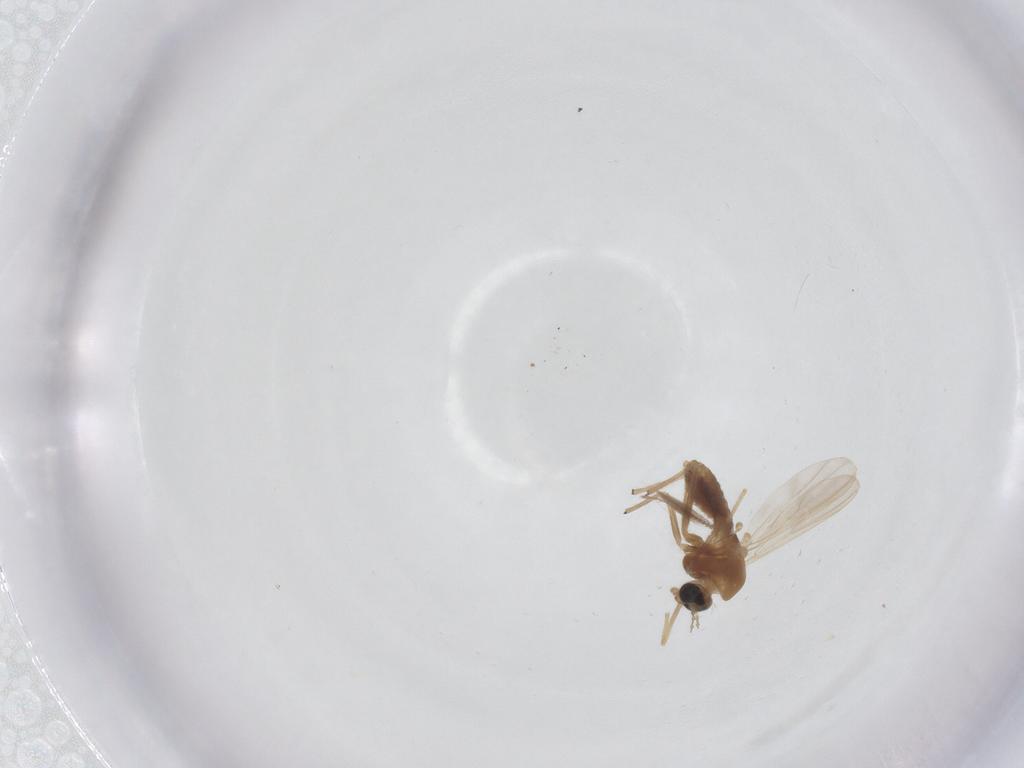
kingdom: Animalia
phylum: Arthropoda
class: Insecta
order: Diptera
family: Chironomidae
